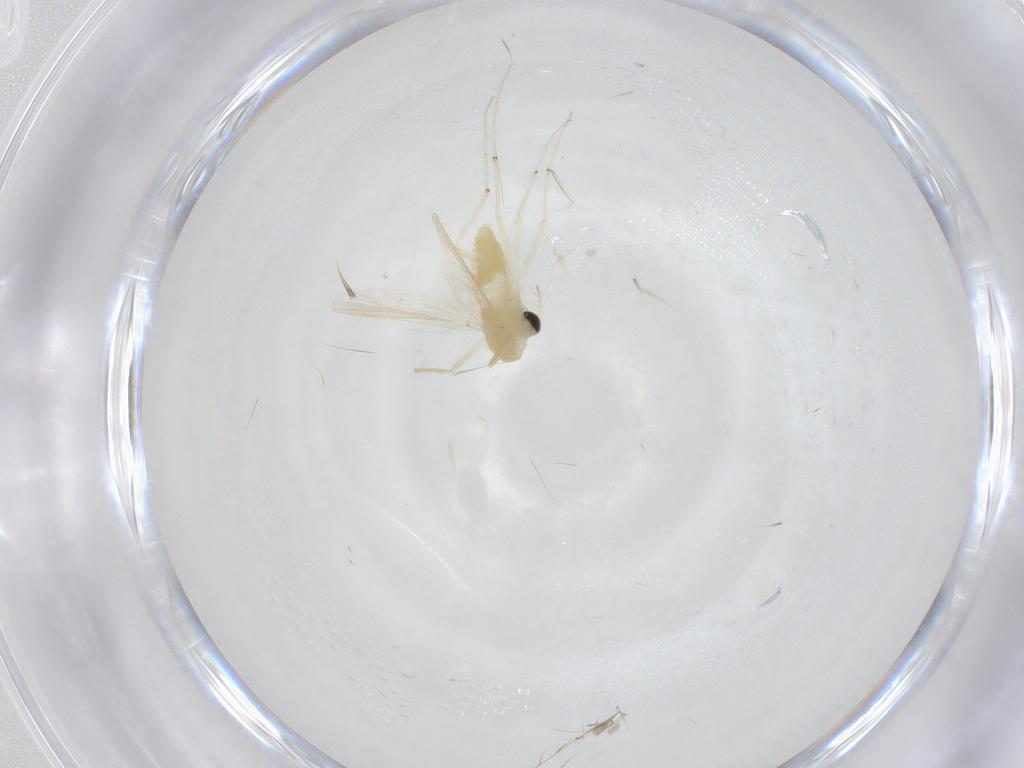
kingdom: Animalia
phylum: Arthropoda
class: Insecta
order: Diptera
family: Chironomidae
